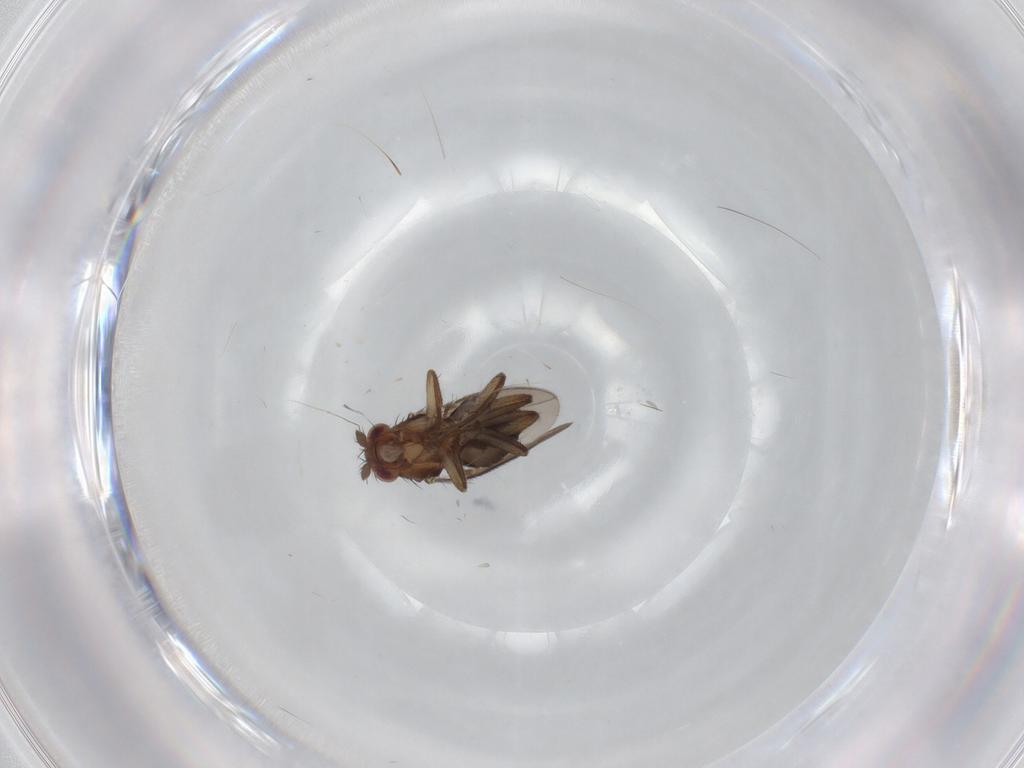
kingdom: Animalia
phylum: Arthropoda
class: Insecta
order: Diptera
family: Sphaeroceridae
